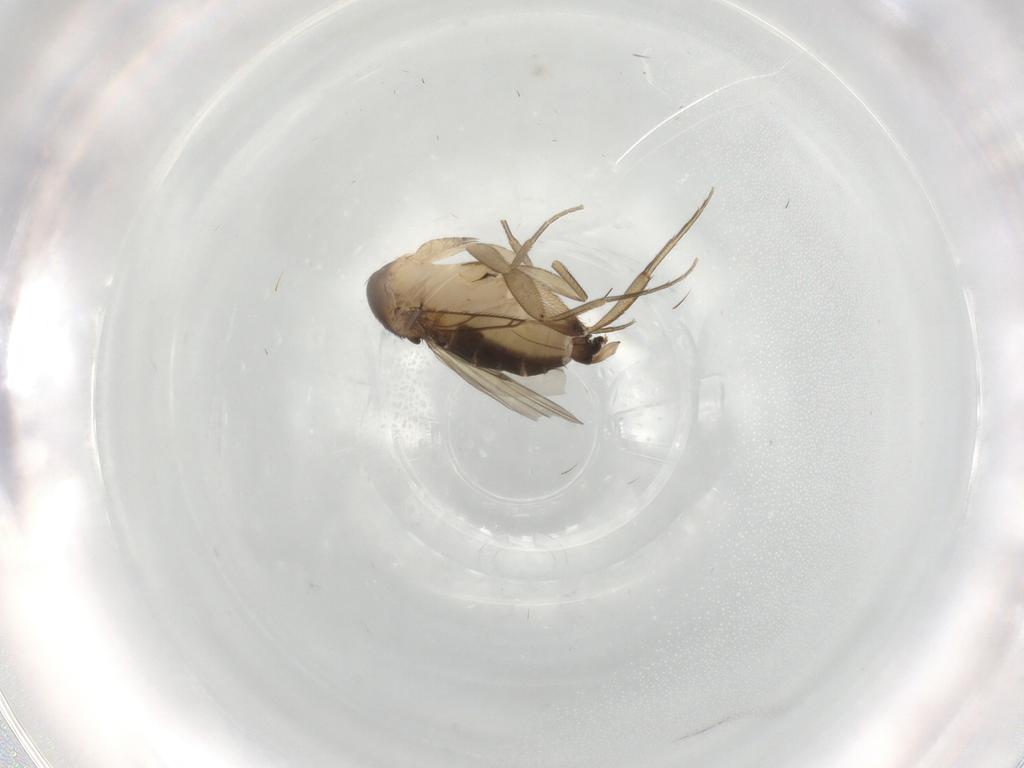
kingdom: Animalia
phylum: Arthropoda
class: Insecta
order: Diptera
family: Phoridae
